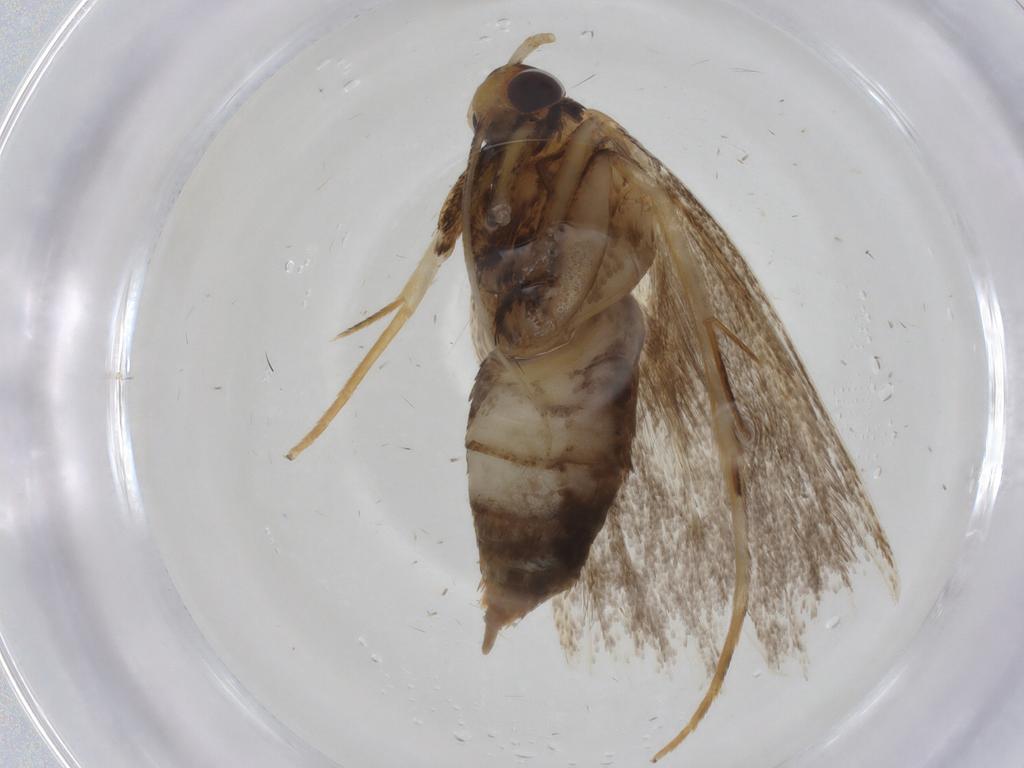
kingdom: Animalia
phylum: Arthropoda
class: Insecta
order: Lepidoptera
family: Lecithoceridae
